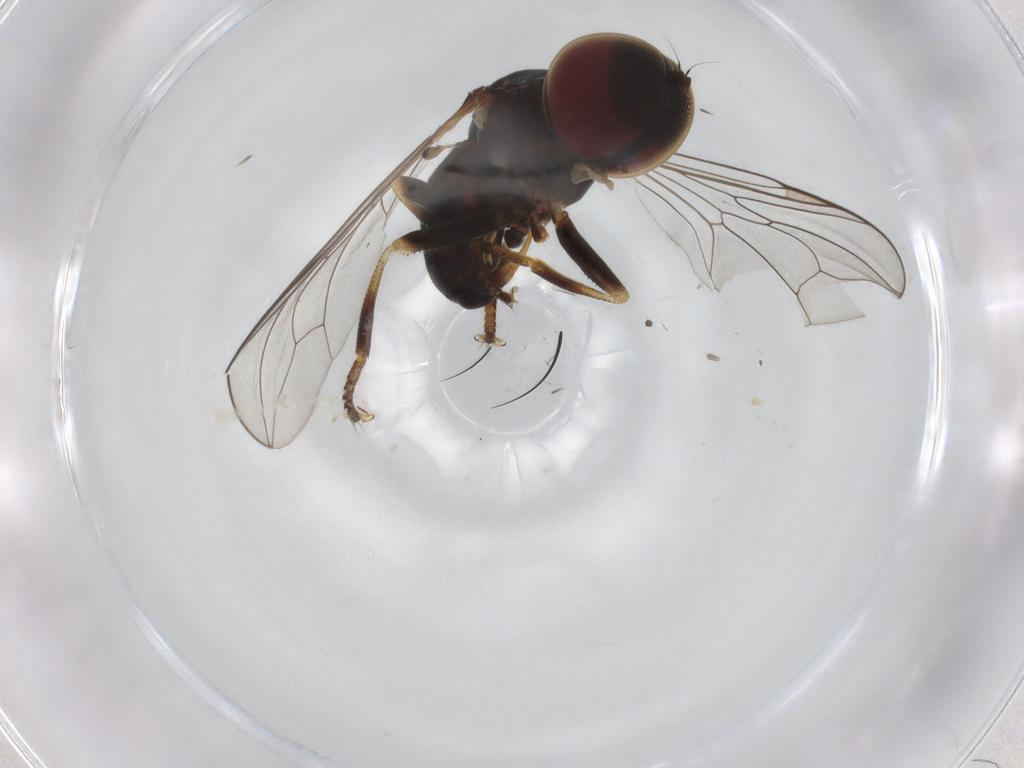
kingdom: Animalia
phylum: Arthropoda
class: Insecta
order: Diptera
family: Pipunculidae
